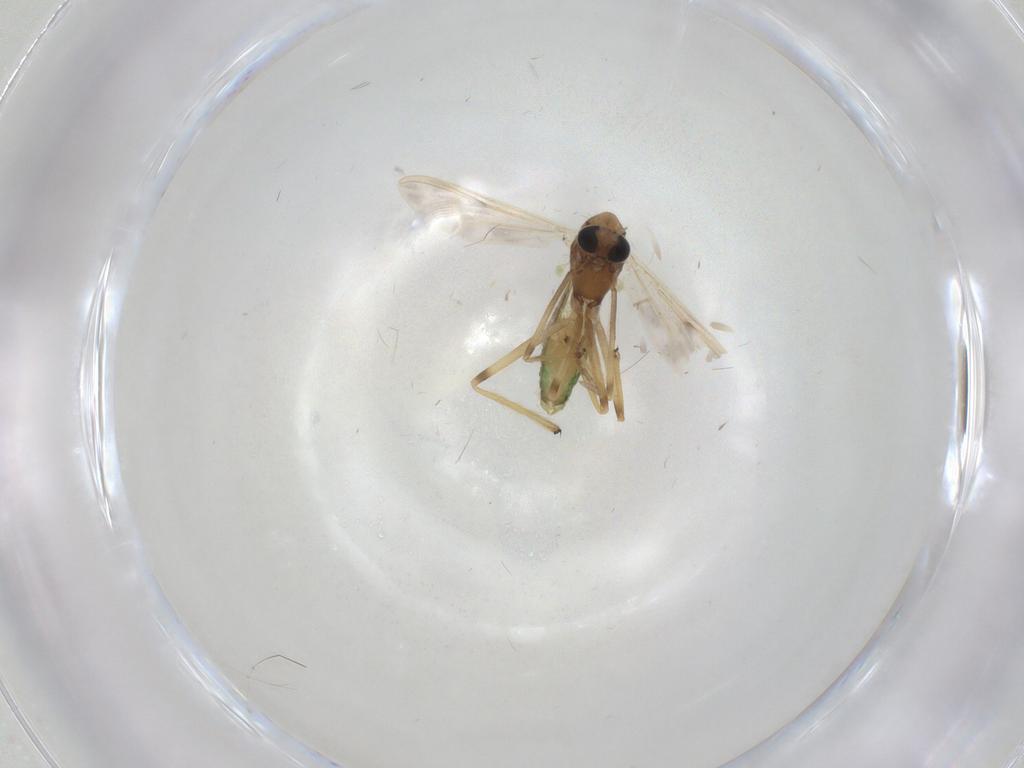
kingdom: Animalia
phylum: Arthropoda
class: Insecta
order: Diptera
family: Chironomidae
